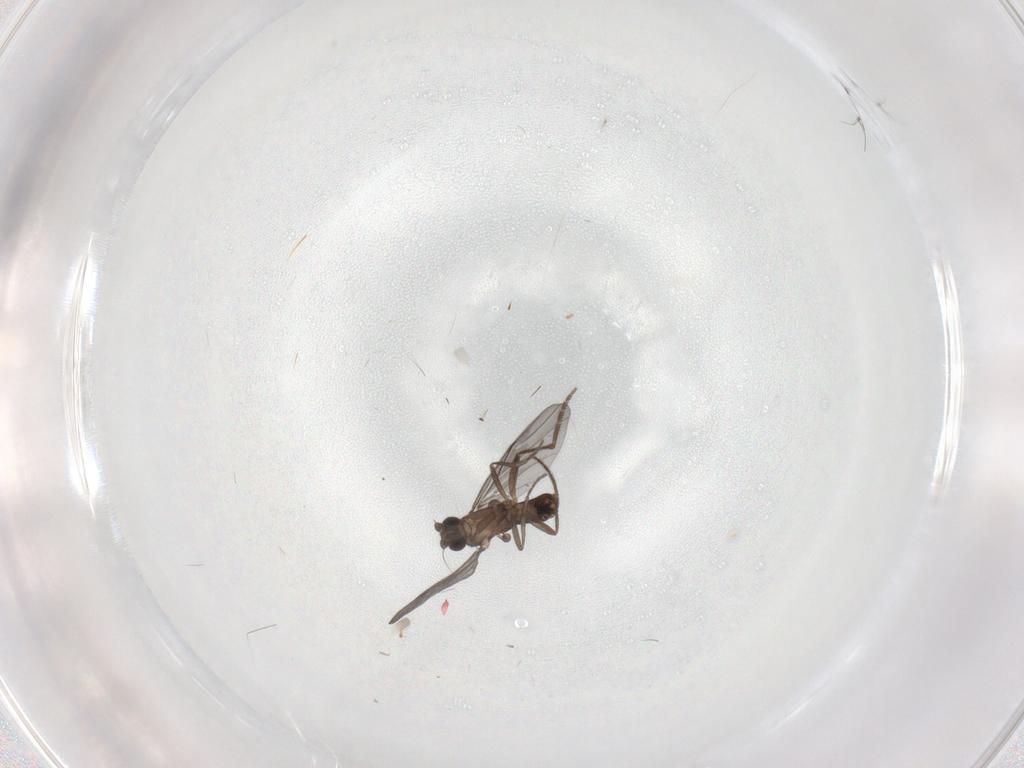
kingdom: Animalia
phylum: Arthropoda
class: Insecta
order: Diptera
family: Phoridae
